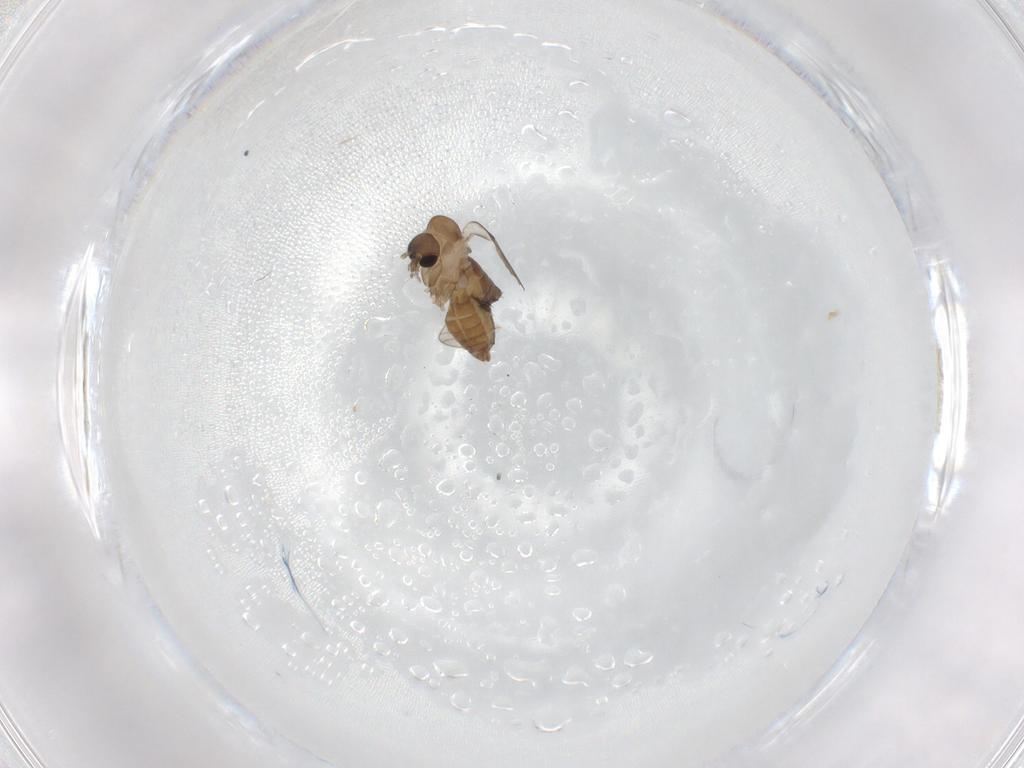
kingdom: Animalia
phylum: Arthropoda
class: Insecta
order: Diptera
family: Psychodidae
